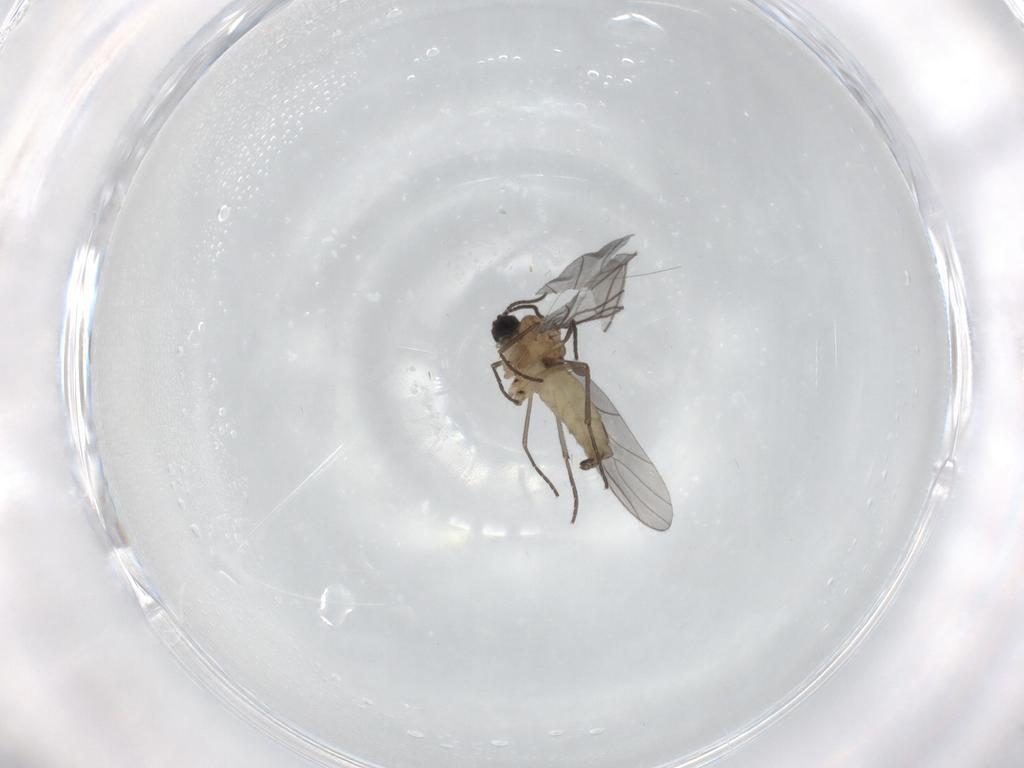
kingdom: Animalia
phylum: Arthropoda
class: Insecta
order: Diptera
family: Sciaridae
